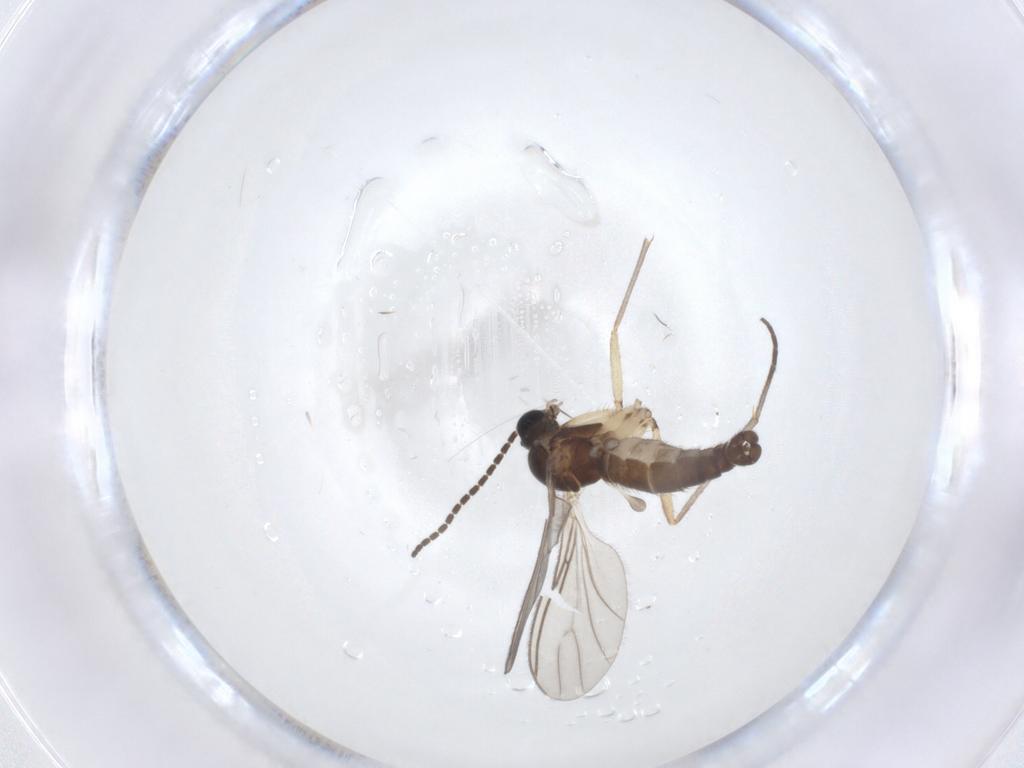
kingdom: Animalia
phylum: Arthropoda
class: Insecta
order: Diptera
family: Sciaridae
